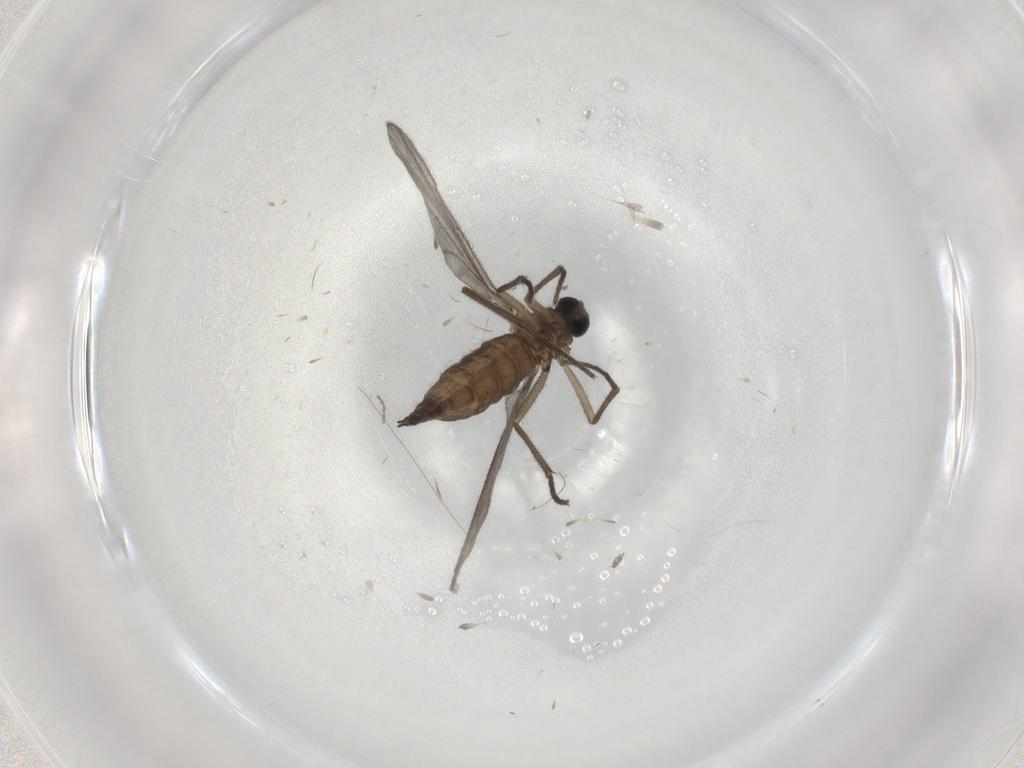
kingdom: Animalia
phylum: Arthropoda
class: Insecta
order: Diptera
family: Sciaridae
